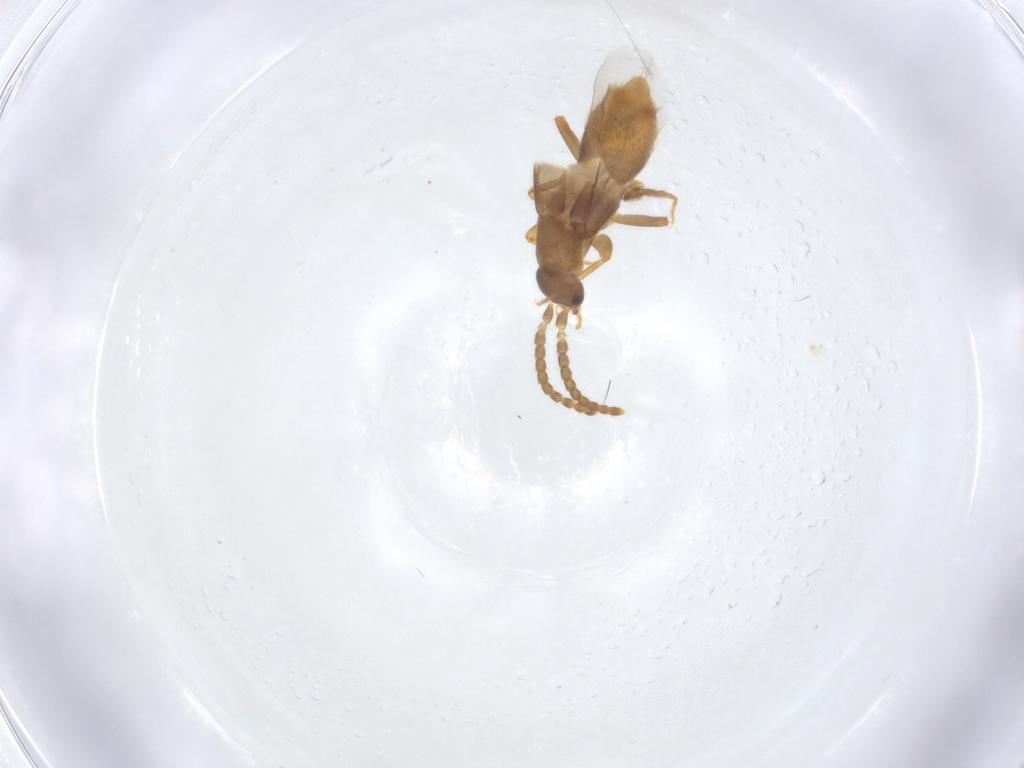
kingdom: Animalia
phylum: Arthropoda
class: Insecta
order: Coleoptera
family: Staphylinidae
